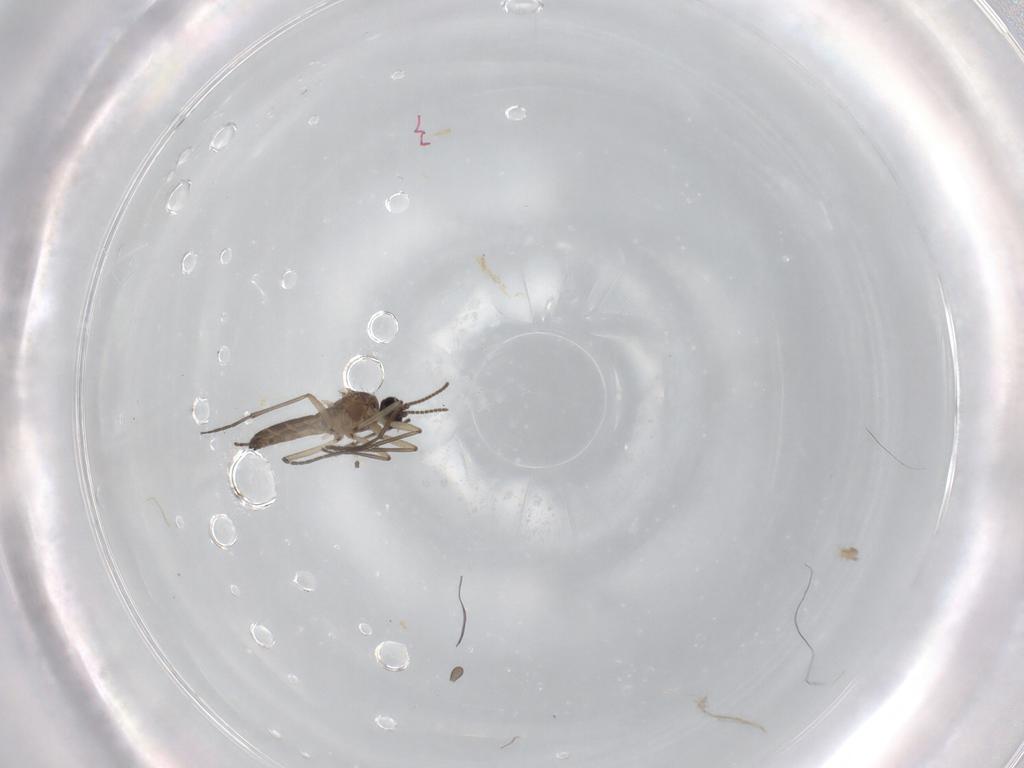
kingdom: Animalia
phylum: Arthropoda
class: Insecta
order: Diptera
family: Sciaridae
